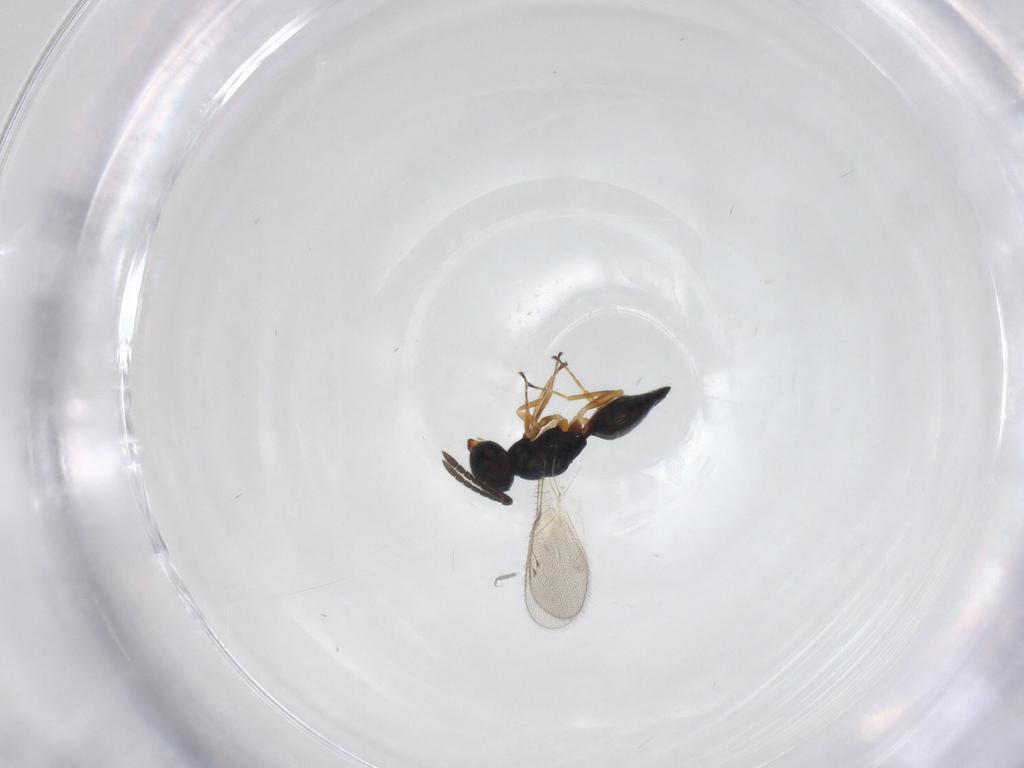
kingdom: Animalia
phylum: Arthropoda
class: Insecta
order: Hymenoptera
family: Pteromalidae
